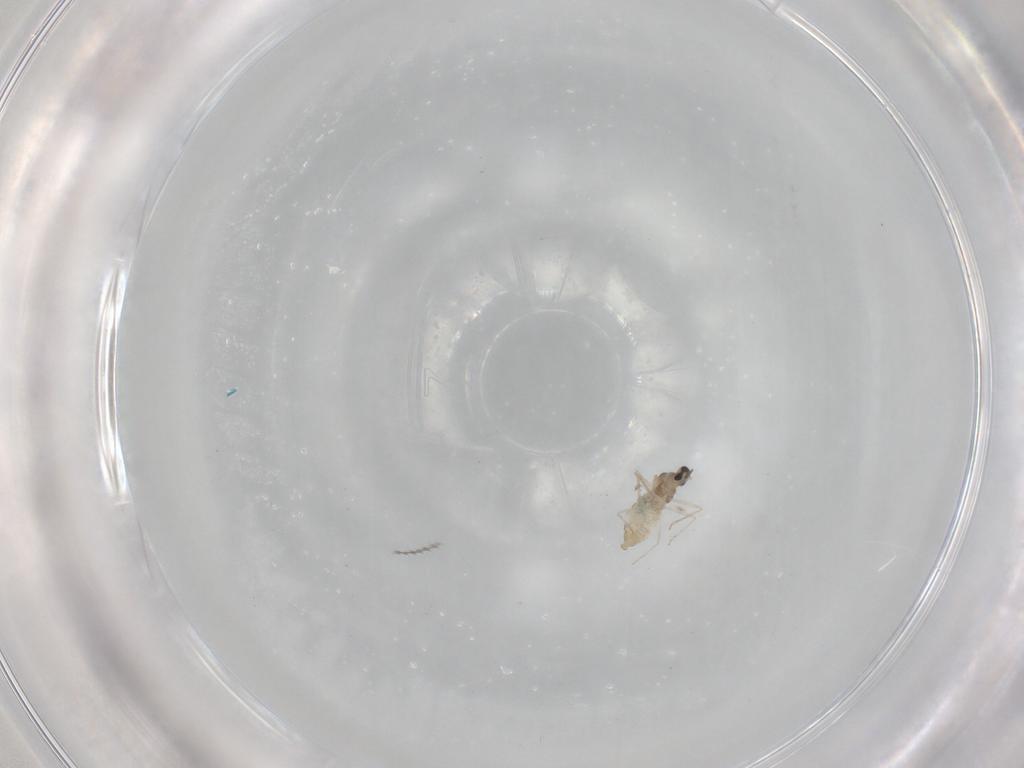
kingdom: Animalia
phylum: Arthropoda
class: Insecta
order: Diptera
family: Cecidomyiidae
